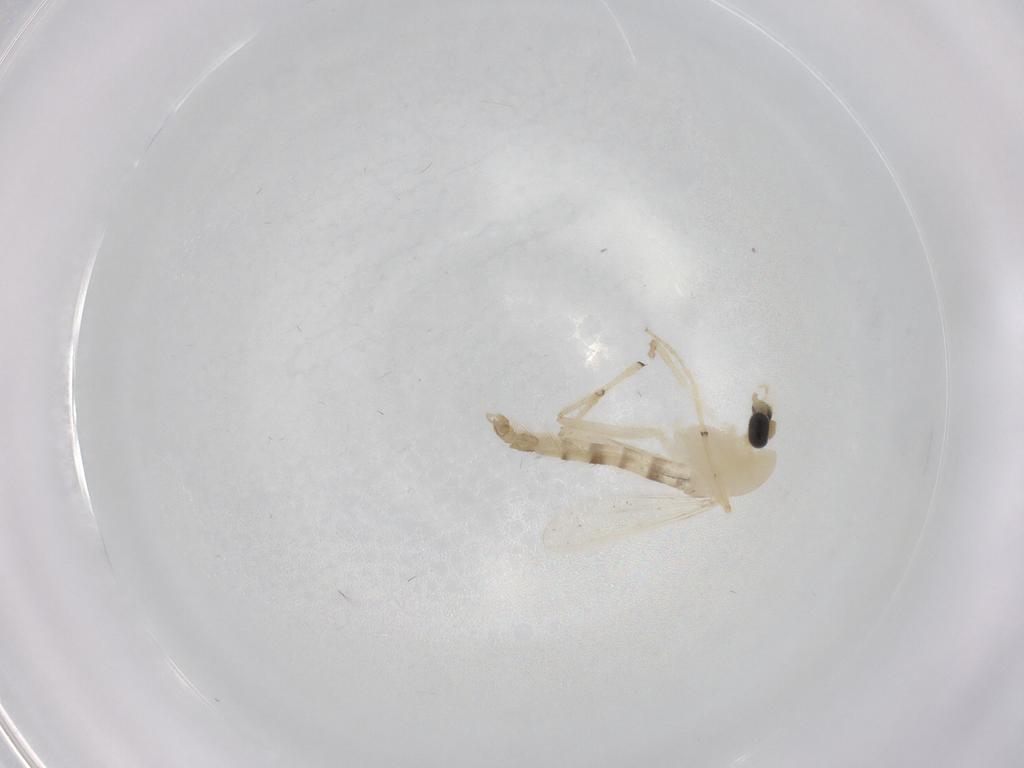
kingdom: Animalia
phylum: Arthropoda
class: Insecta
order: Diptera
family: Chironomidae
